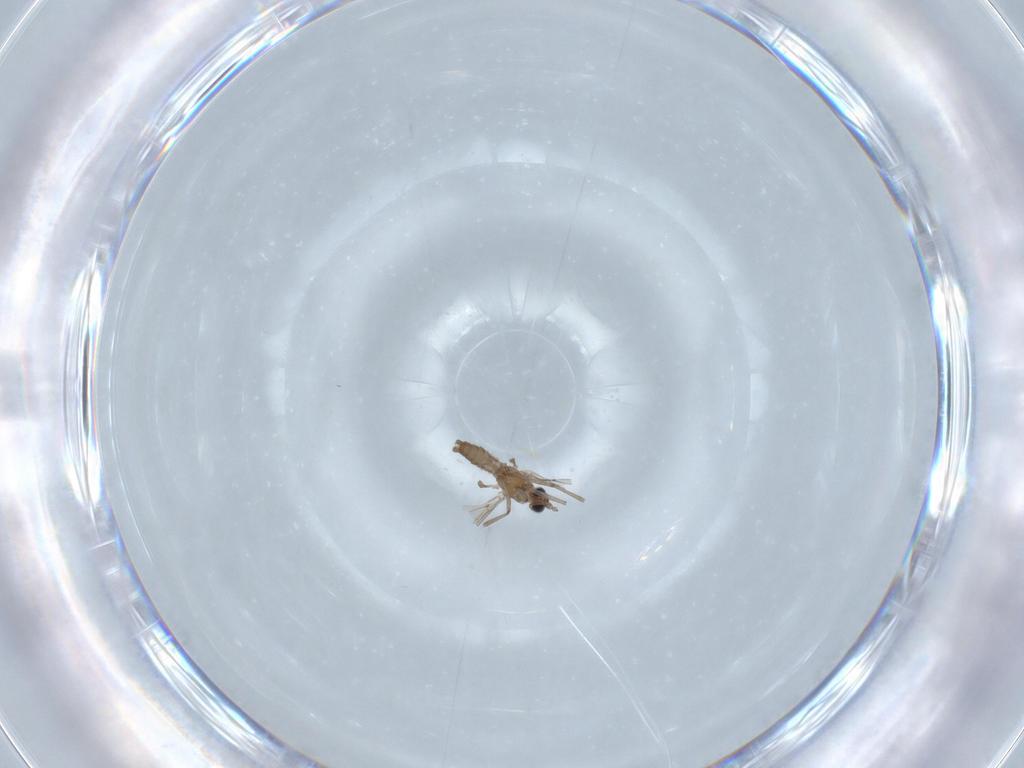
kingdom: Animalia
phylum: Arthropoda
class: Insecta
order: Diptera
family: Cecidomyiidae
